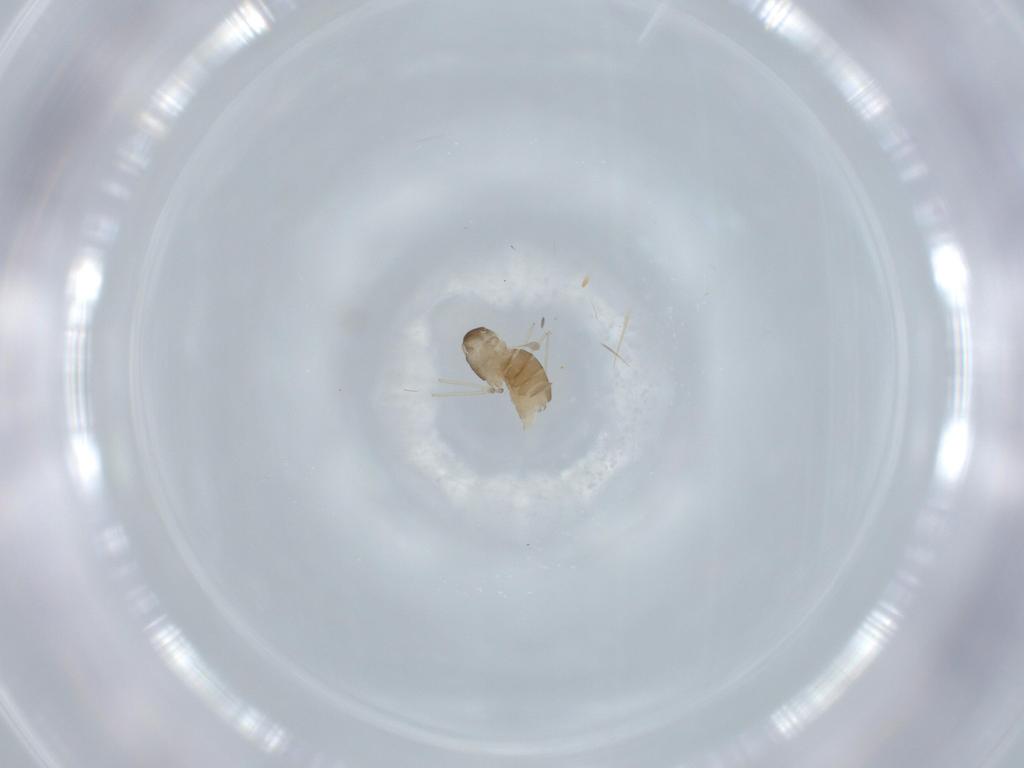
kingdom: Animalia
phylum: Arthropoda
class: Insecta
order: Diptera
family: Cecidomyiidae
